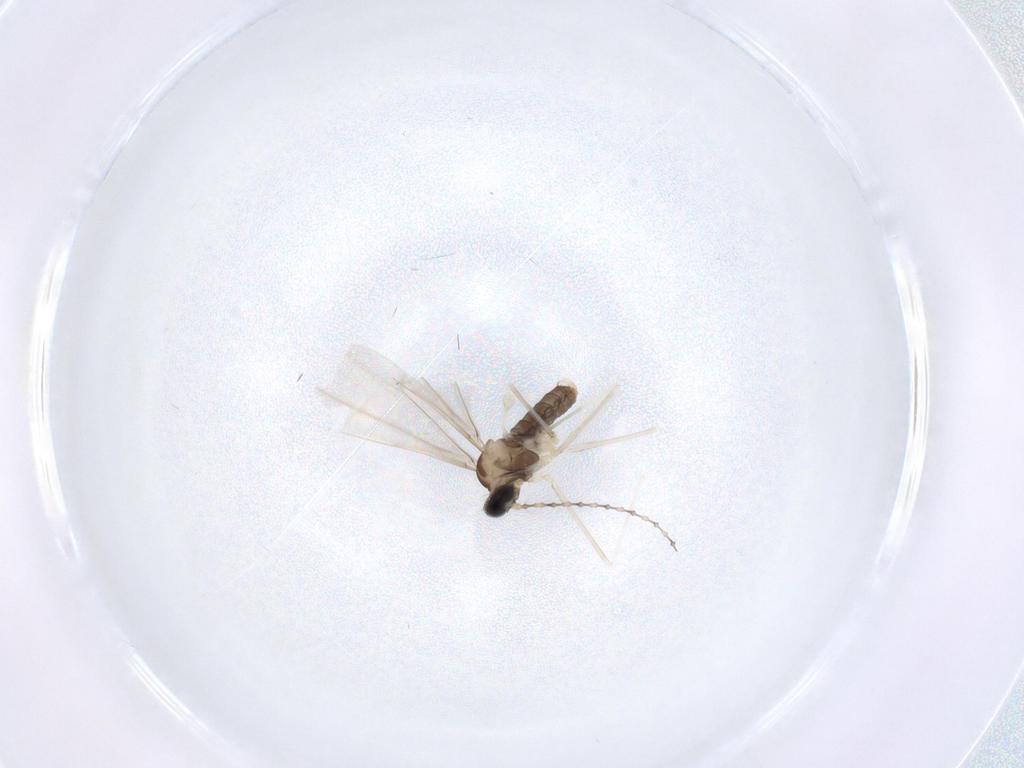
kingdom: Animalia
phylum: Arthropoda
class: Insecta
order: Diptera
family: Cecidomyiidae
